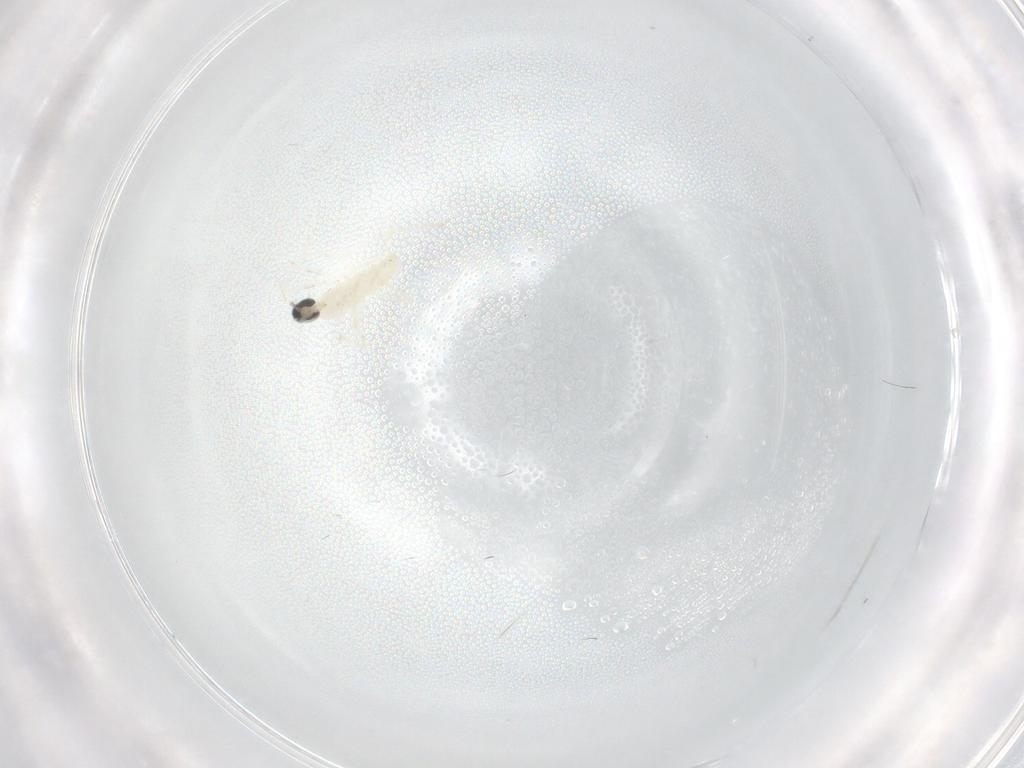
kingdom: Animalia
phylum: Arthropoda
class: Insecta
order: Diptera
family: Cecidomyiidae
